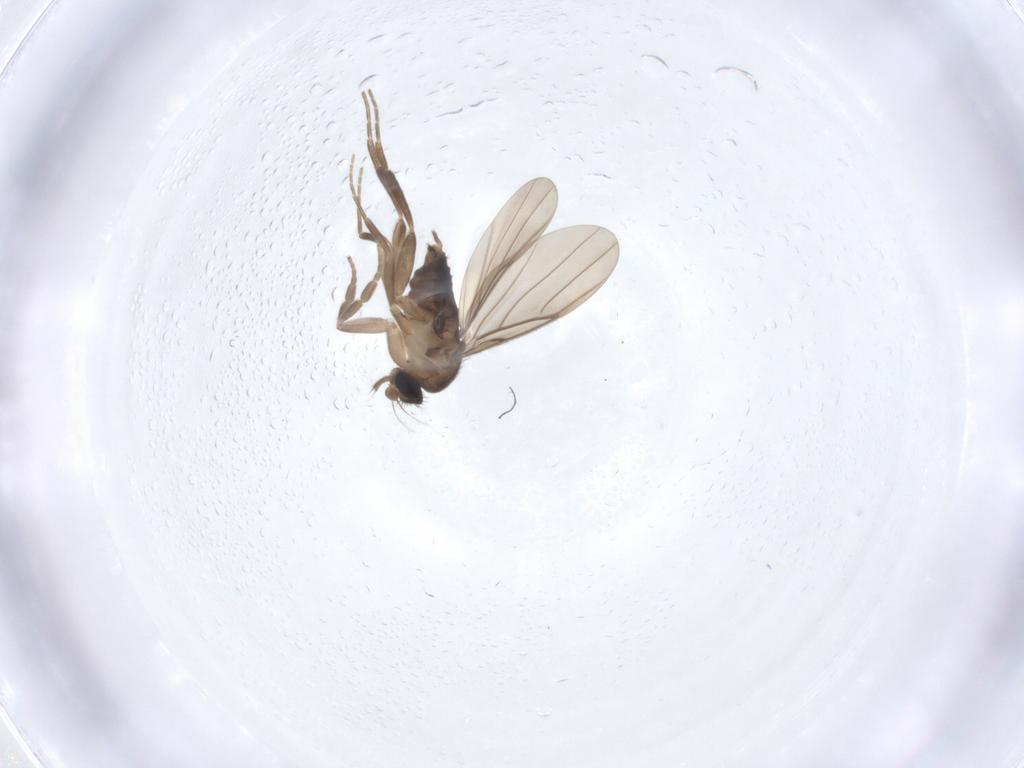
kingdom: Animalia
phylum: Arthropoda
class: Insecta
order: Diptera
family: Phoridae
